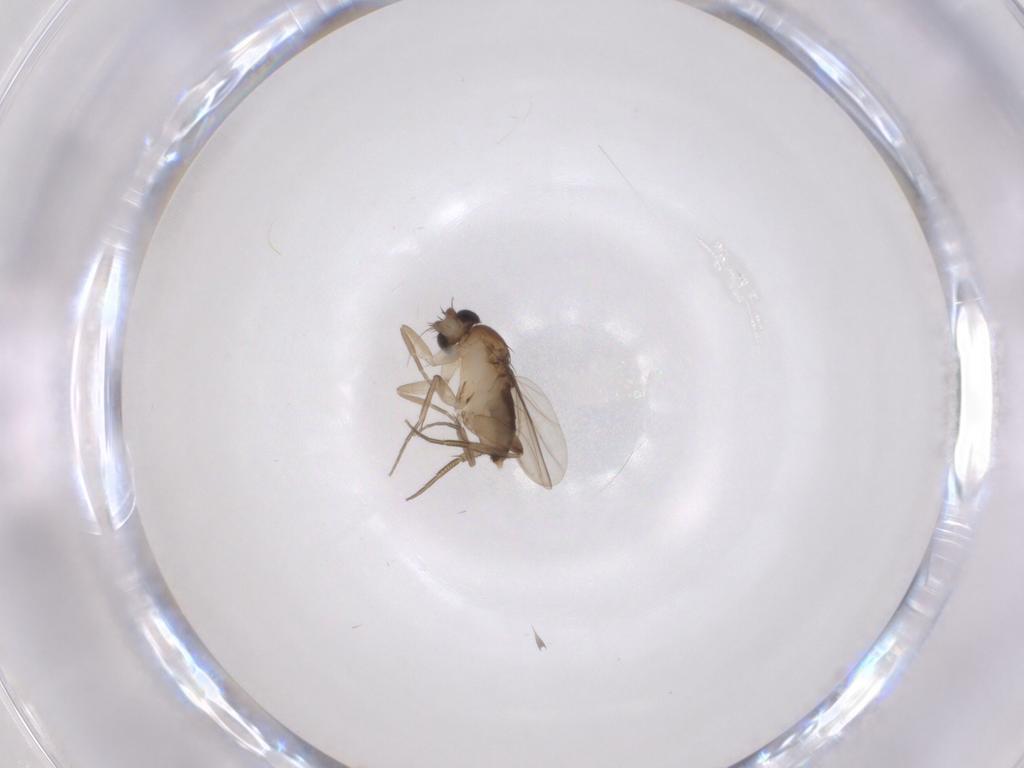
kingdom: Animalia
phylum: Arthropoda
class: Insecta
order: Diptera
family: Phoridae
